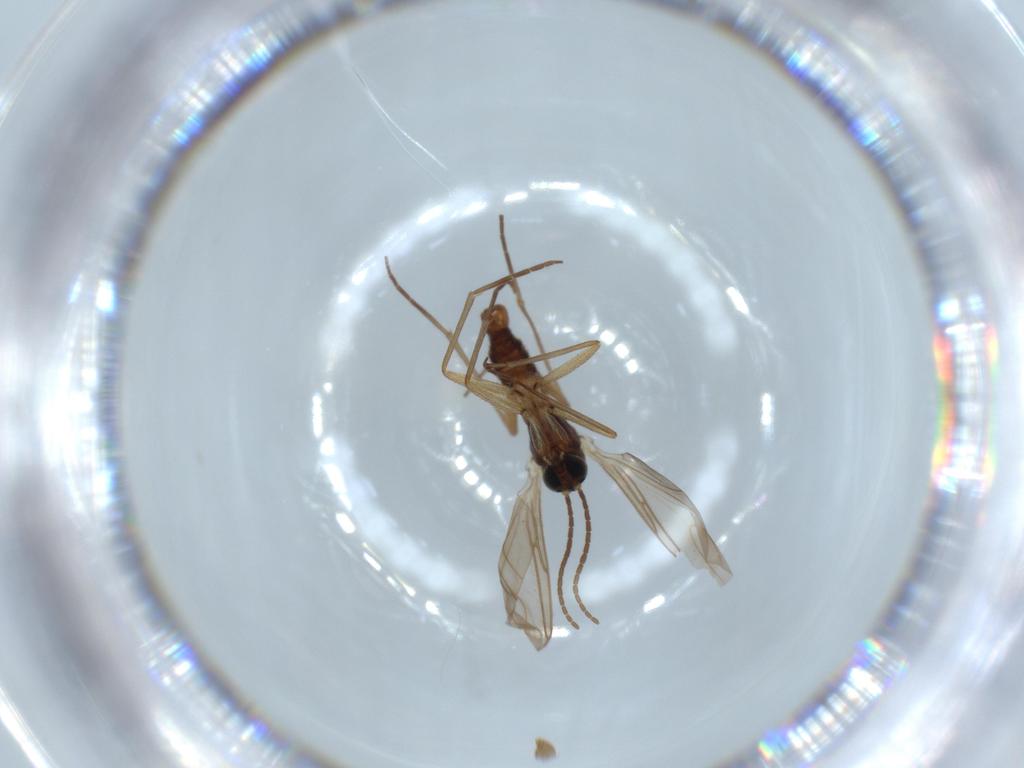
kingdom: Animalia
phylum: Arthropoda
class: Insecta
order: Diptera
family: Sciaridae
